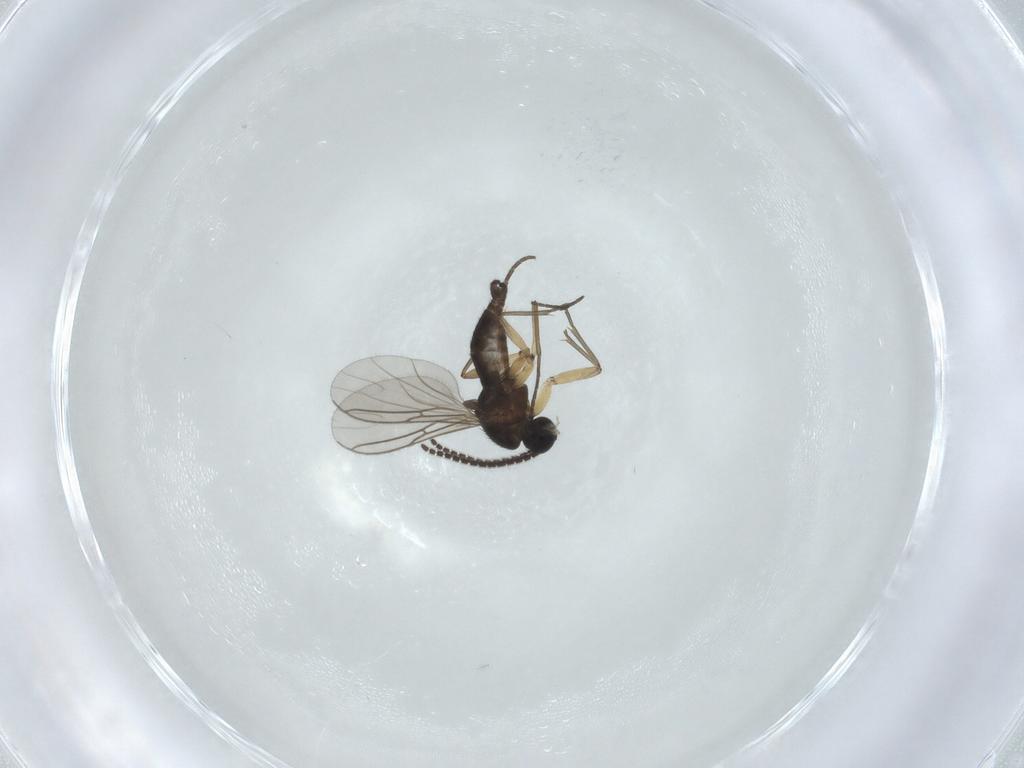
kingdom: Animalia
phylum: Arthropoda
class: Insecta
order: Diptera
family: Sciaridae
